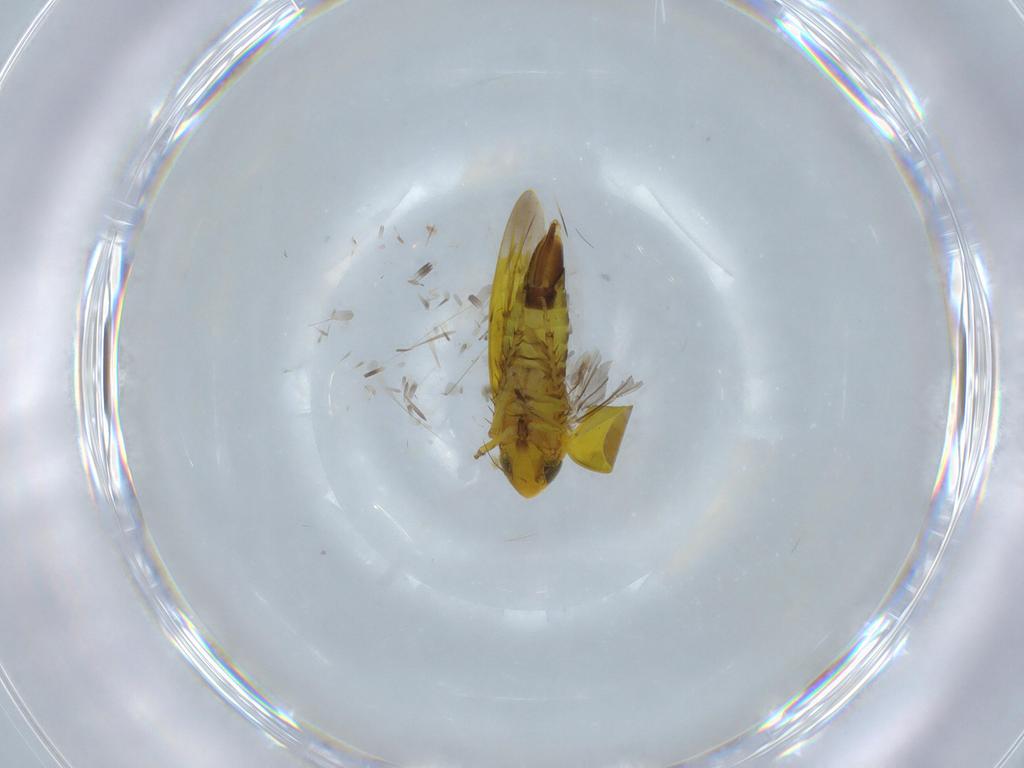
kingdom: Animalia
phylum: Arthropoda
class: Insecta
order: Hemiptera
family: Cicadellidae
